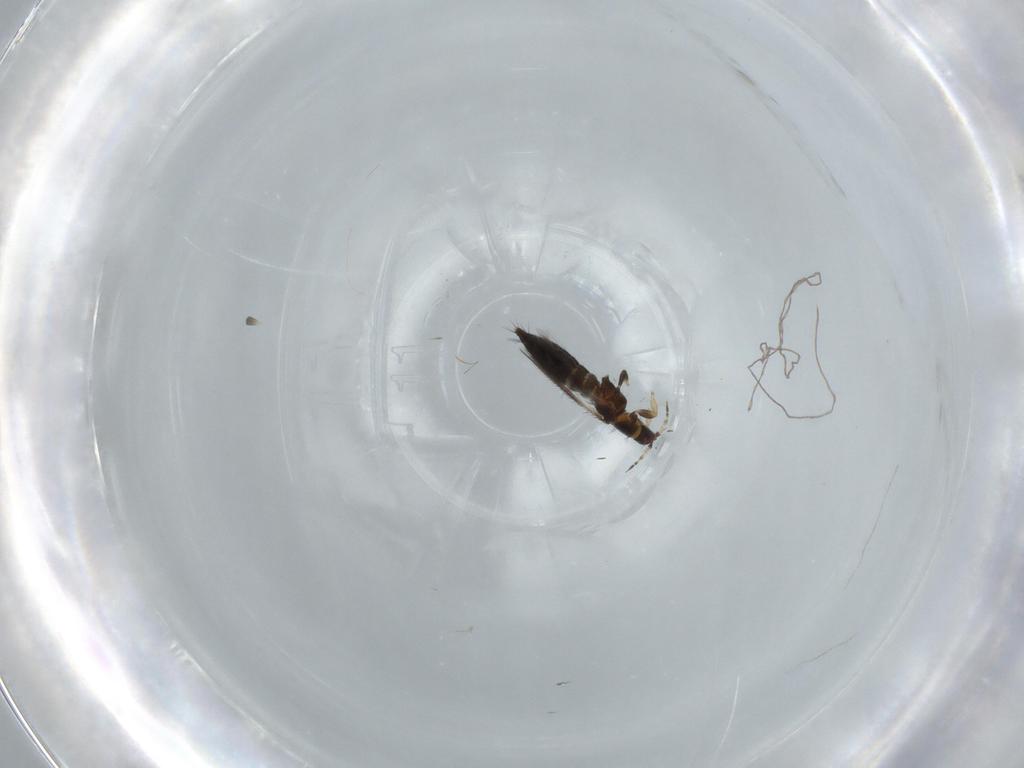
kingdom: Animalia
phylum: Arthropoda
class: Insecta
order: Thysanoptera
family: Thripidae
